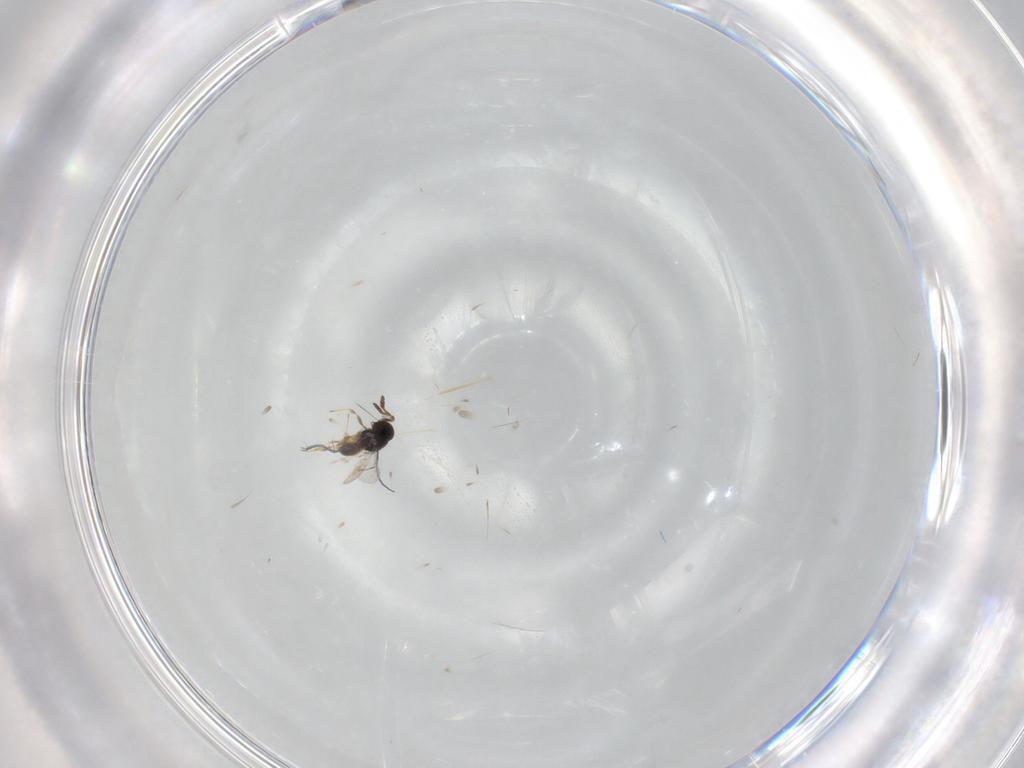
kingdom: Animalia
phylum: Arthropoda
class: Insecta
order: Hymenoptera
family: Scelionidae
